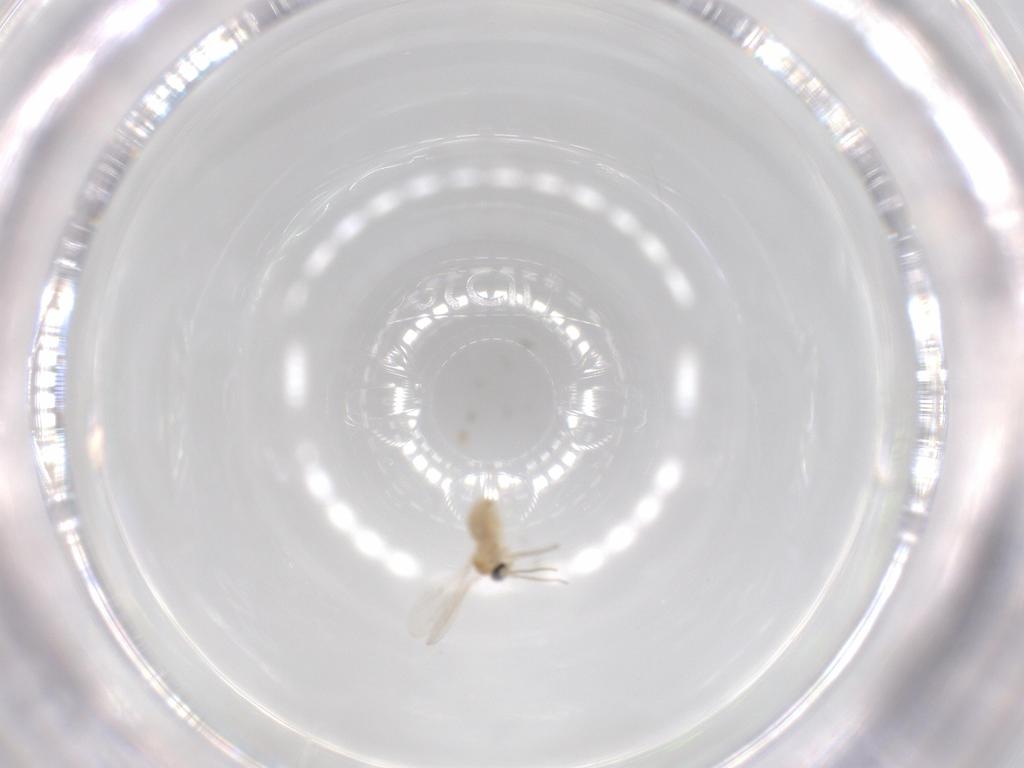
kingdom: Animalia
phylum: Arthropoda
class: Insecta
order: Diptera
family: Cecidomyiidae
